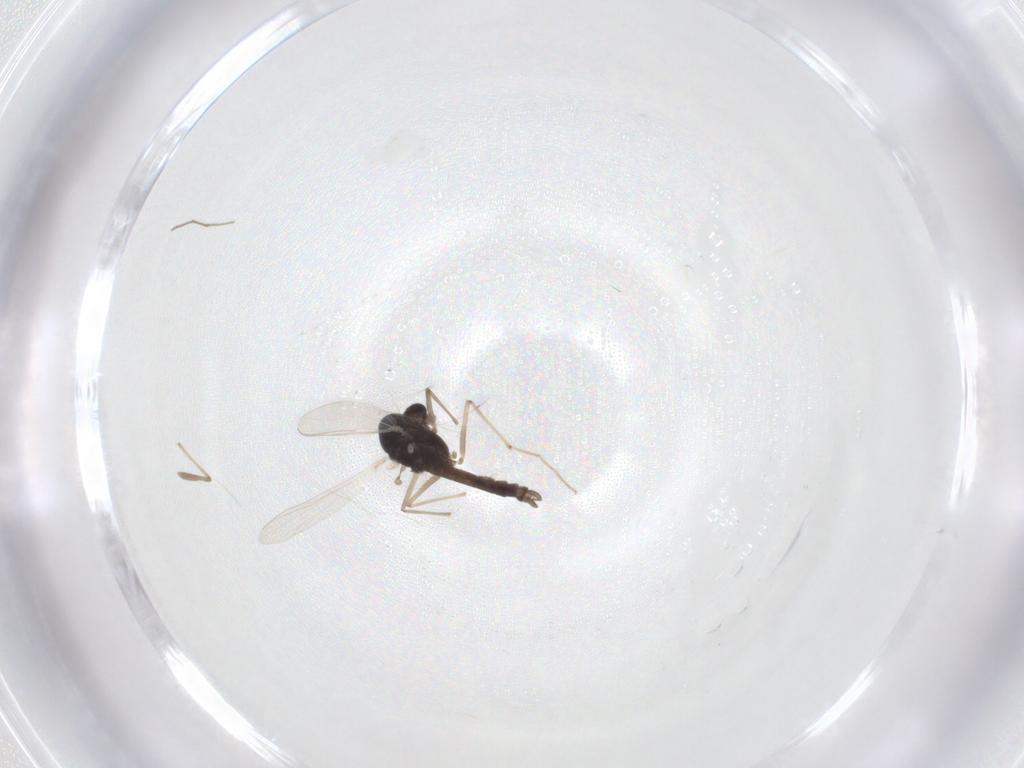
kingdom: Animalia
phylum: Arthropoda
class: Insecta
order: Diptera
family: Chironomidae
